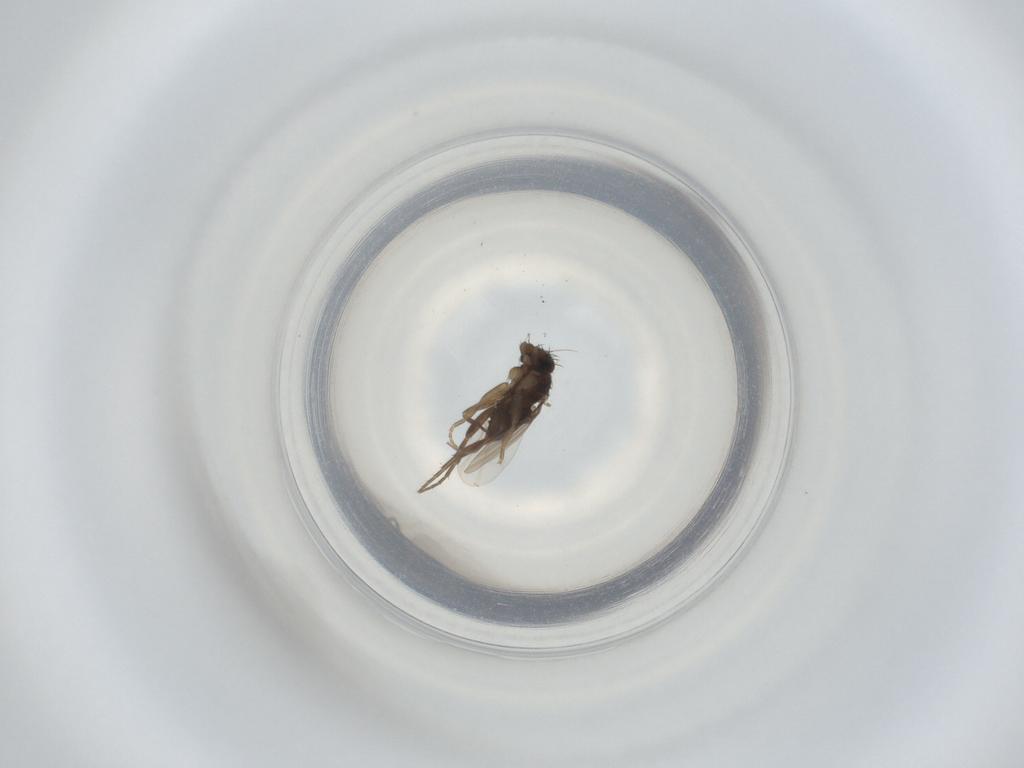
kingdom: Animalia
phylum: Arthropoda
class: Insecta
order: Diptera
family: Phoridae
